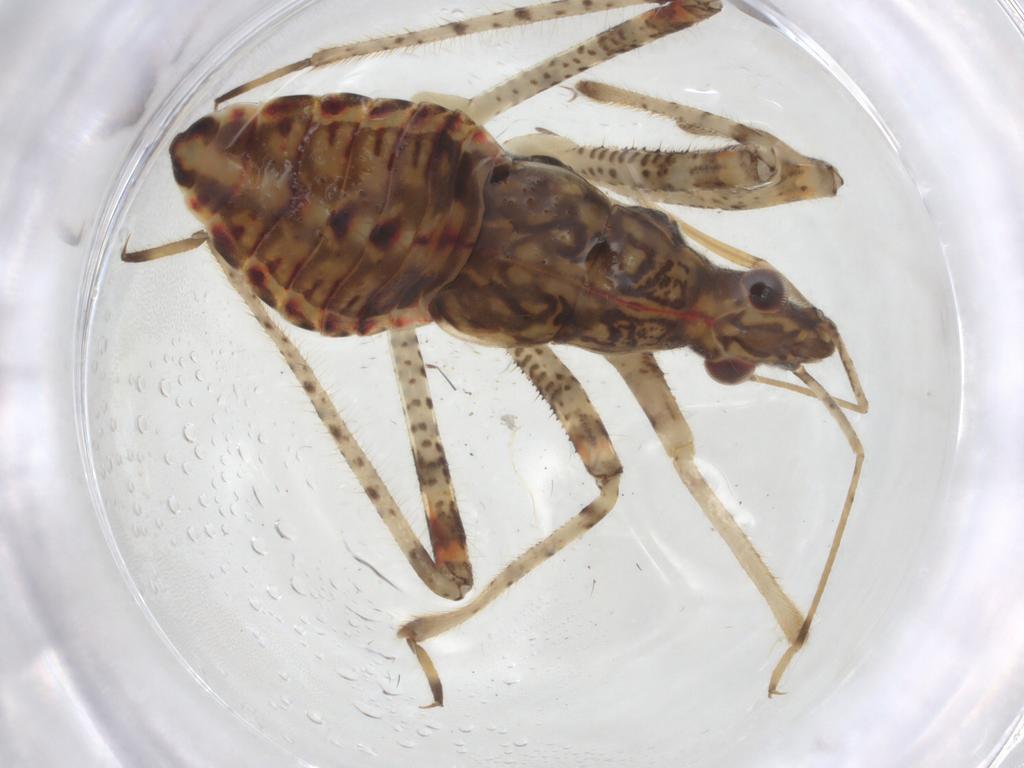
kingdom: Animalia
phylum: Arthropoda
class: Insecta
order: Hemiptera
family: Nabidae
